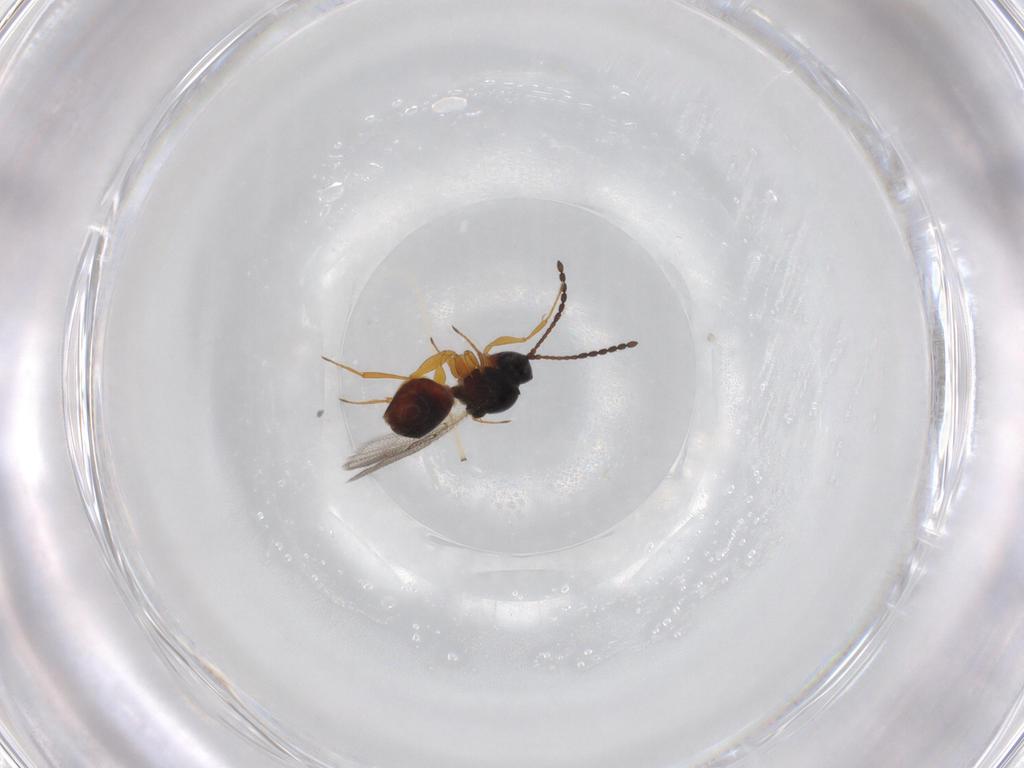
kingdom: Animalia
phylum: Arthropoda
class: Insecta
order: Hymenoptera
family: Figitidae
